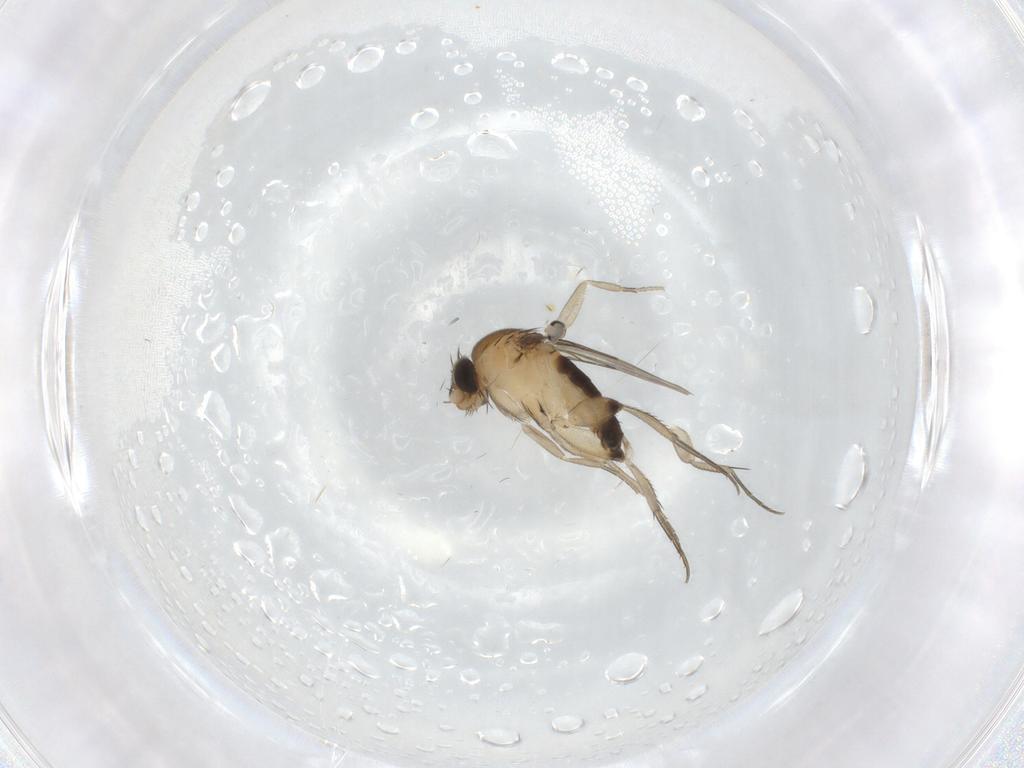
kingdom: Animalia
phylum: Arthropoda
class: Insecta
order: Diptera
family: Phoridae
